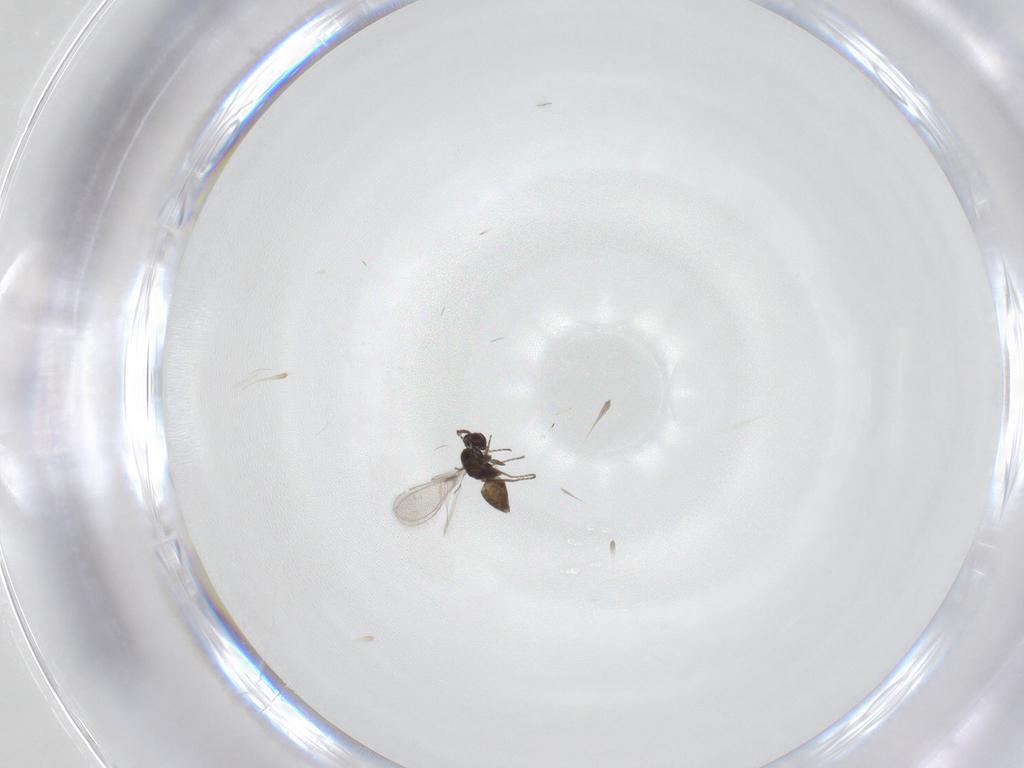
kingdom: Animalia
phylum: Arthropoda
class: Insecta
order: Hymenoptera
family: Mymaridae
